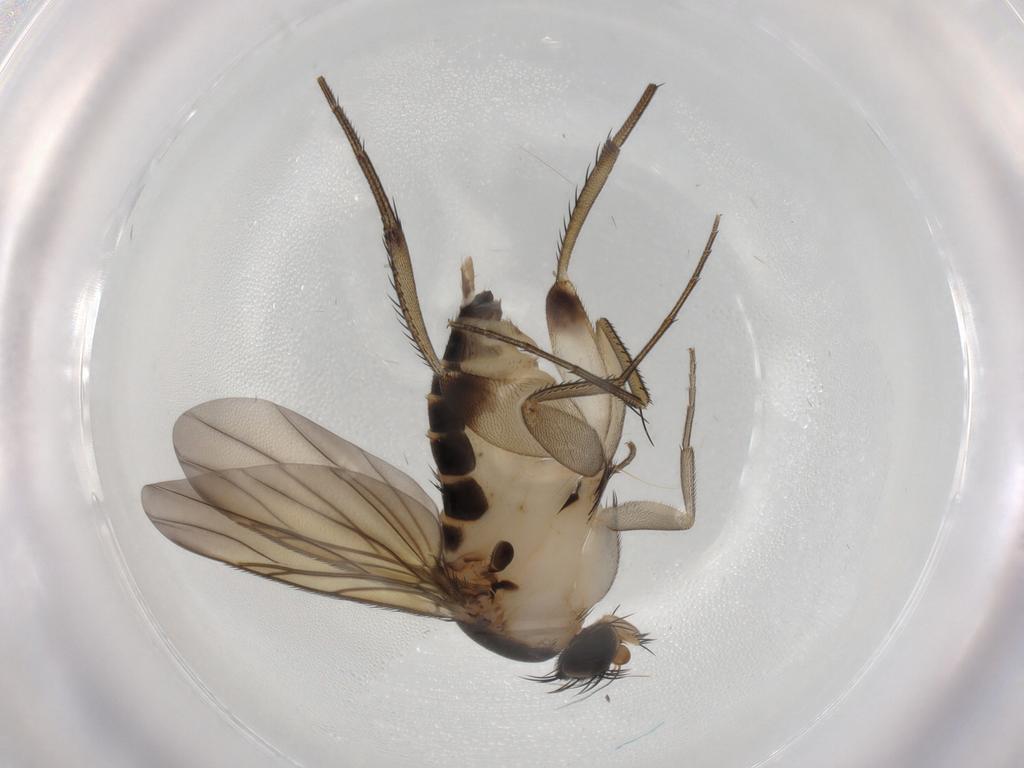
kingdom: Animalia
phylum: Arthropoda
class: Insecta
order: Diptera
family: Phoridae
